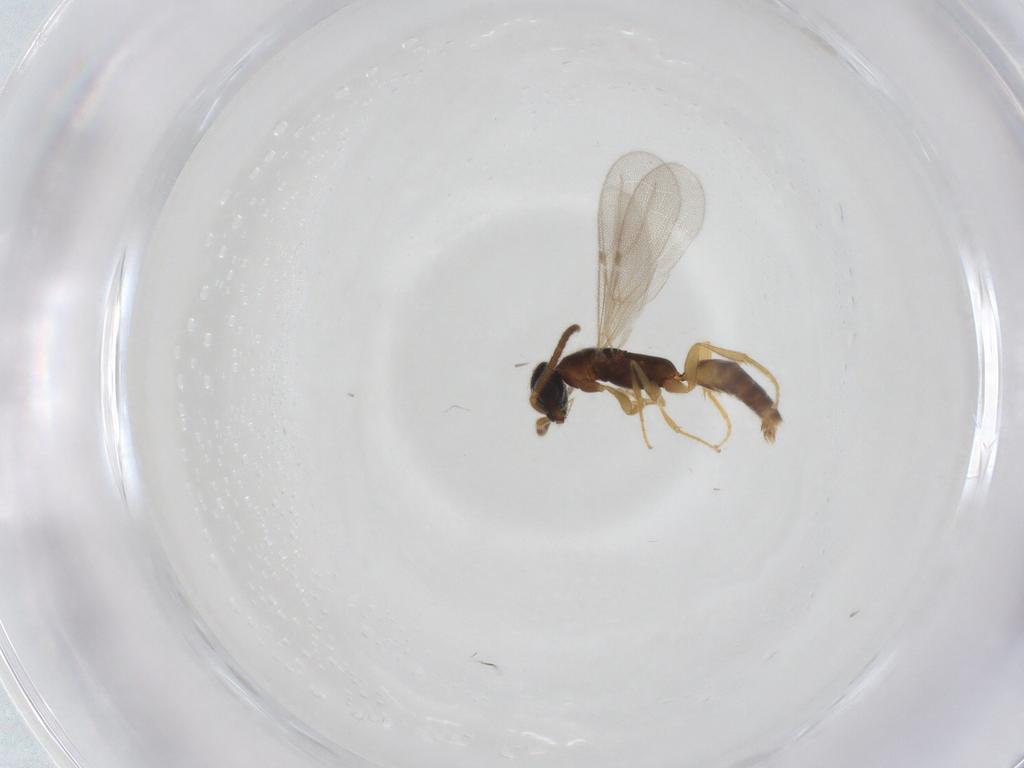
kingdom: Animalia
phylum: Arthropoda
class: Insecta
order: Hymenoptera
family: Bethylidae
